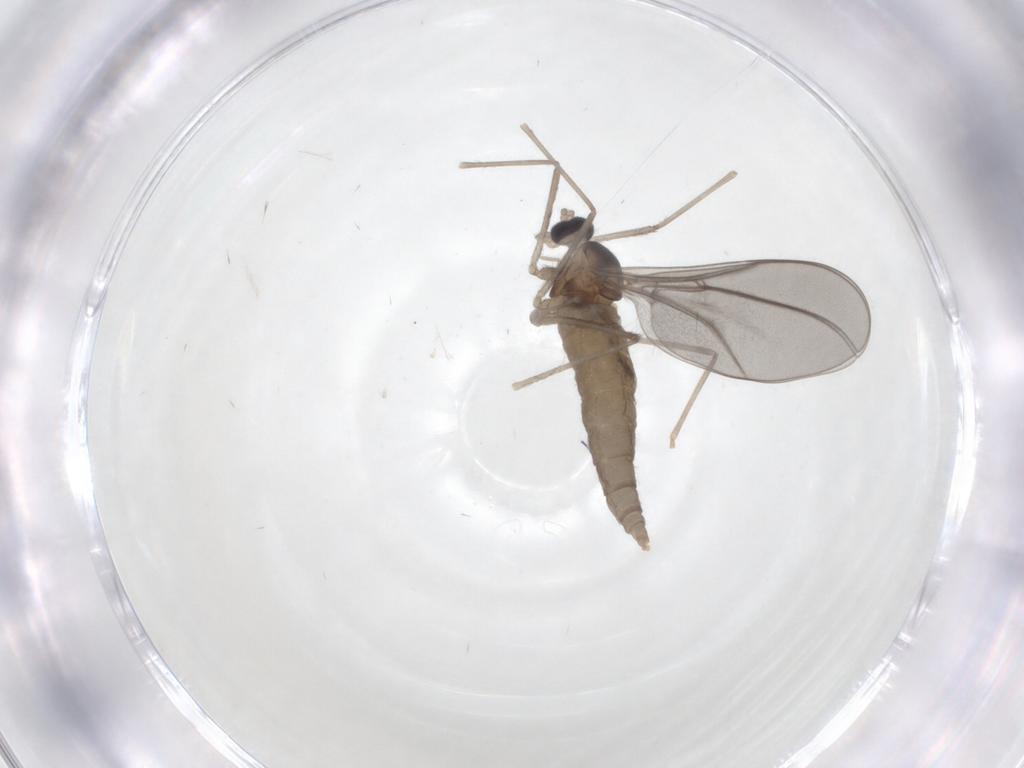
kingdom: Animalia
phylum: Arthropoda
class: Insecta
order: Diptera
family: Cecidomyiidae
